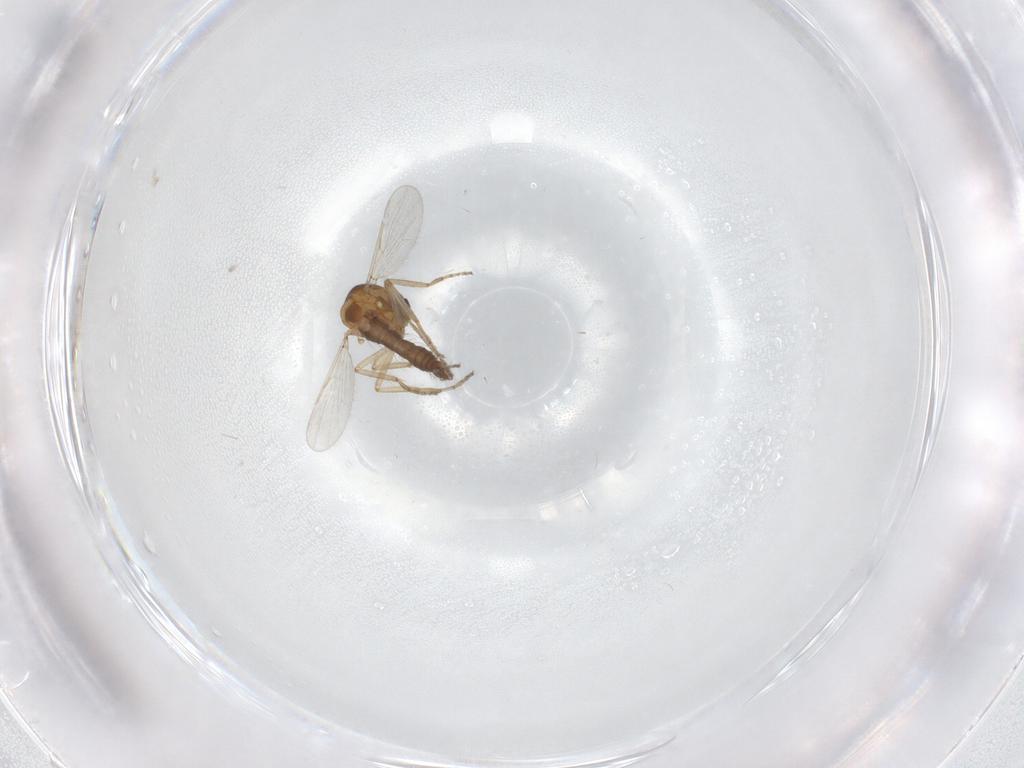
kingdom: Animalia
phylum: Arthropoda
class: Insecta
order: Diptera
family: Ceratopogonidae
